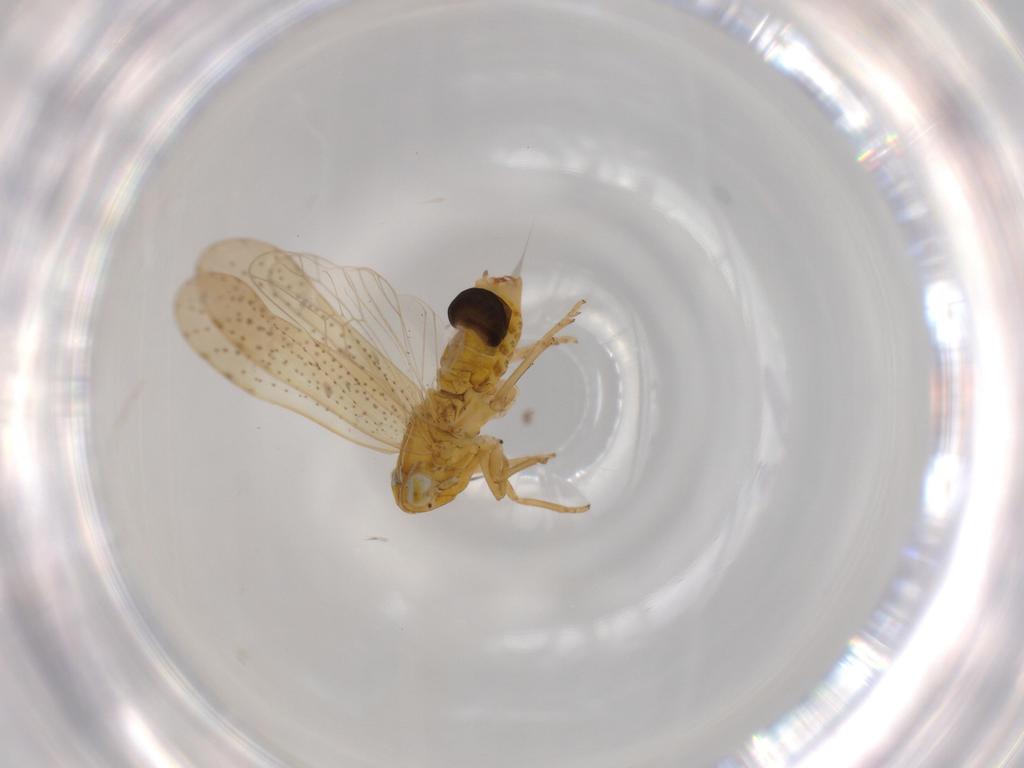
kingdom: Animalia
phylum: Arthropoda
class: Insecta
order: Hemiptera
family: Delphacidae
